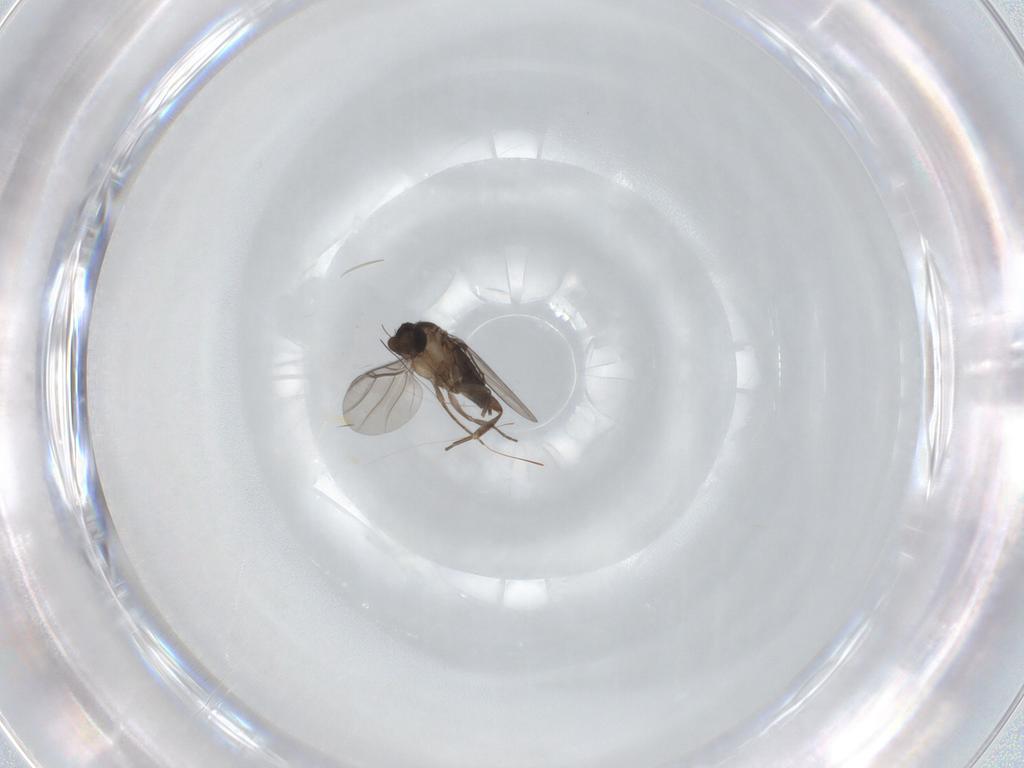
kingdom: Animalia
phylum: Arthropoda
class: Insecta
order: Diptera
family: Phoridae
